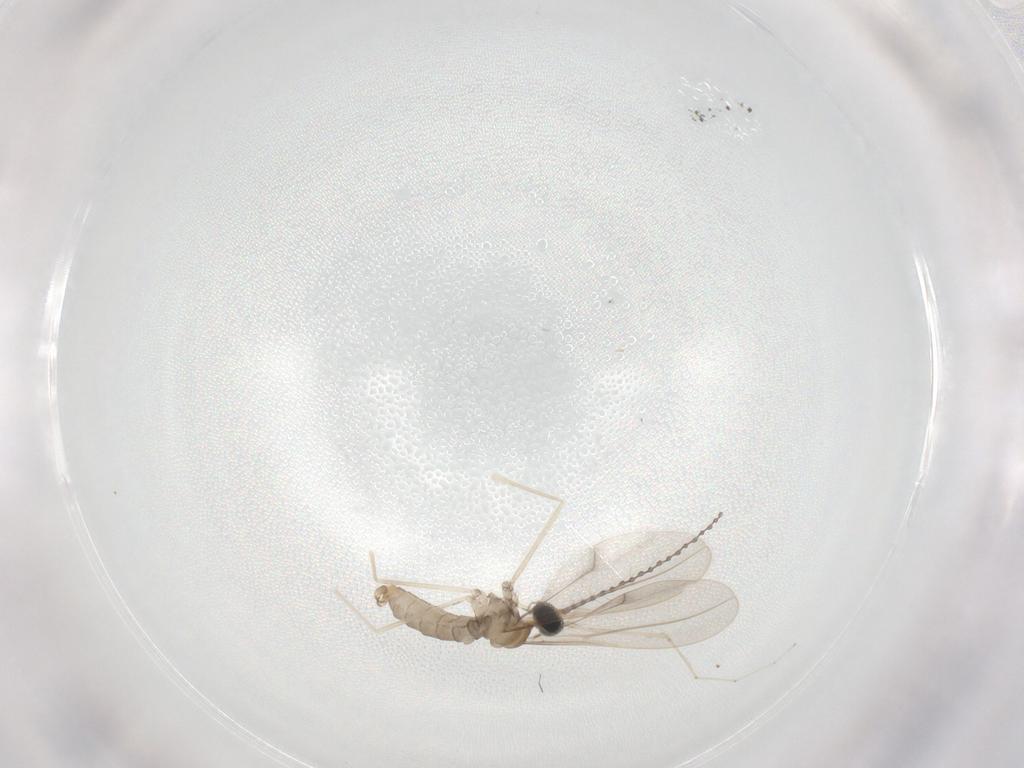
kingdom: Animalia
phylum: Arthropoda
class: Insecta
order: Diptera
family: Cecidomyiidae
